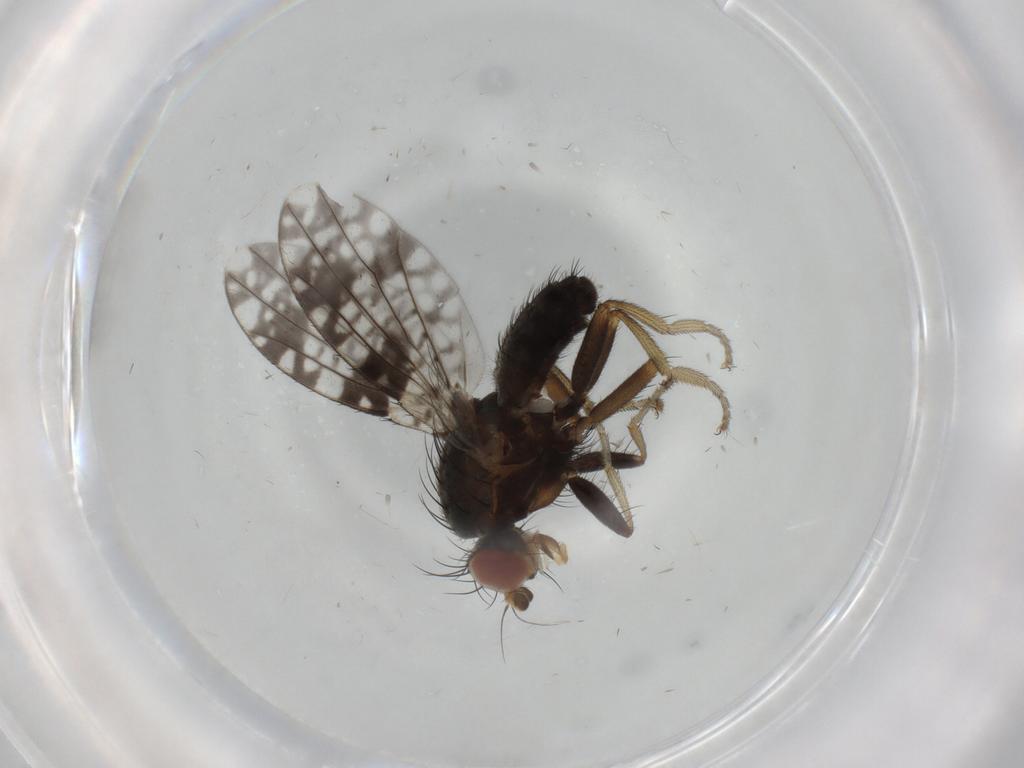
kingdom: Animalia
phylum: Arthropoda
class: Insecta
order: Diptera
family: Tephritidae
